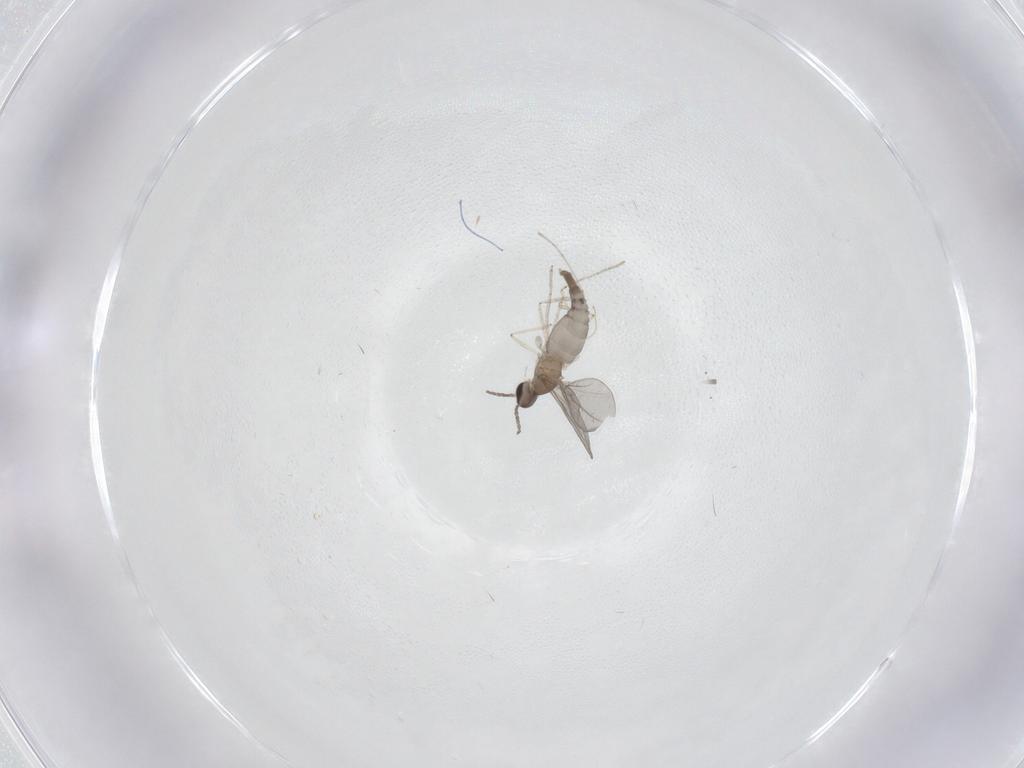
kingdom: Animalia
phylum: Arthropoda
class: Insecta
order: Diptera
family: Cecidomyiidae
